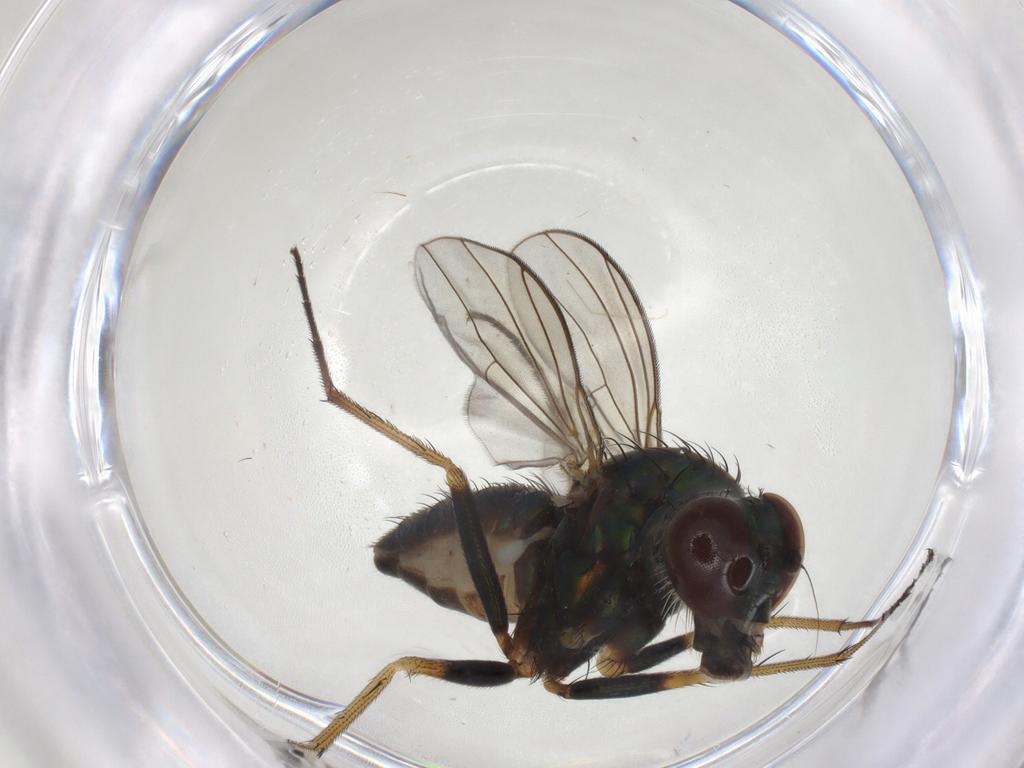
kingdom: Animalia
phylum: Arthropoda
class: Insecta
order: Diptera
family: Dolichopodidae
